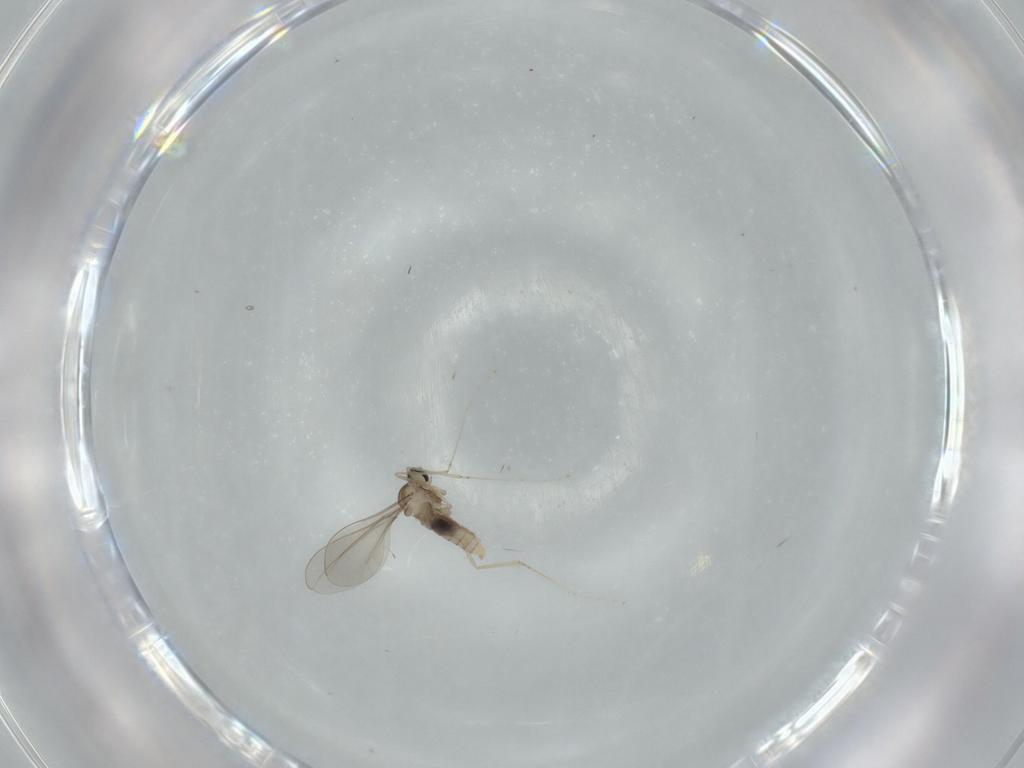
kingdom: Animalia
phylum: Arthropoda
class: Insecta
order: Diptera
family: Cecidomyiidae
